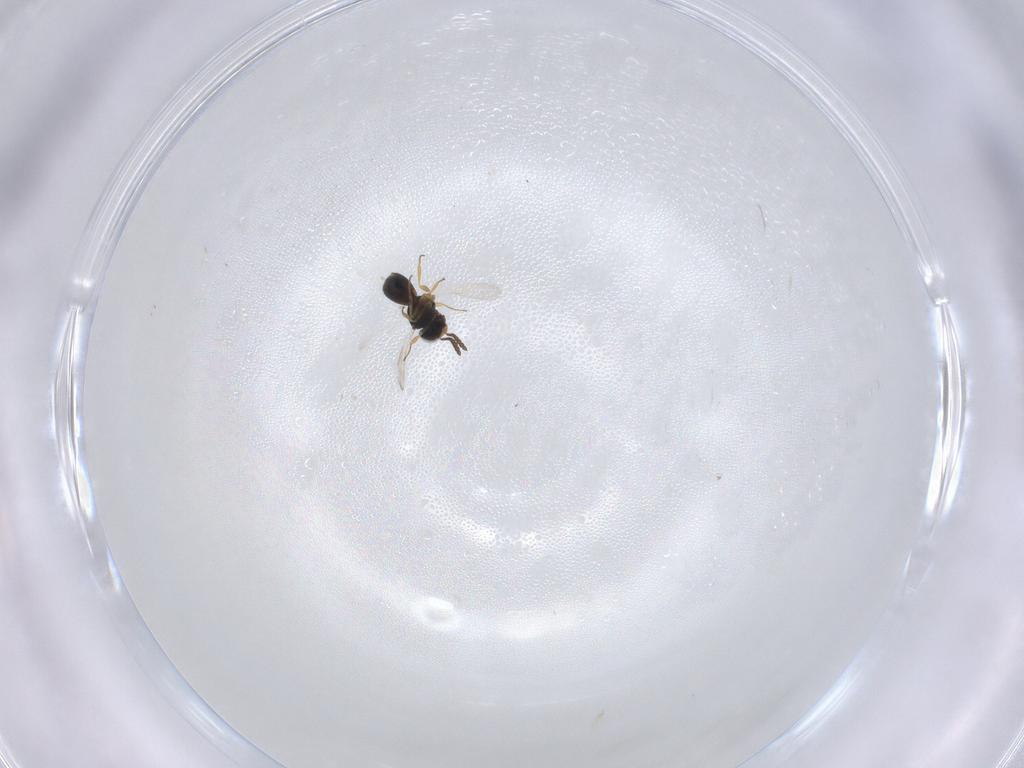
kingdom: Animalia
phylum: Arthropoda
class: Insecta
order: Hymenoptera
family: Scelionidae
